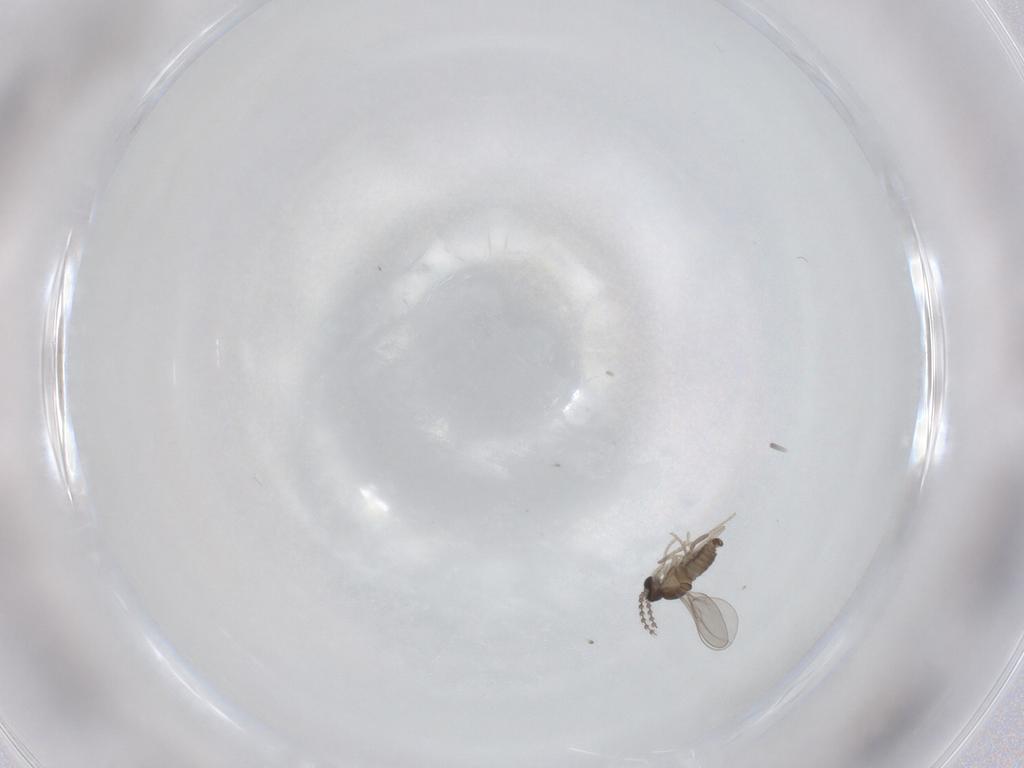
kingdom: Animalia
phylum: Arthropoda
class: Insecta
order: Diptera
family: Cecidomyiidae
